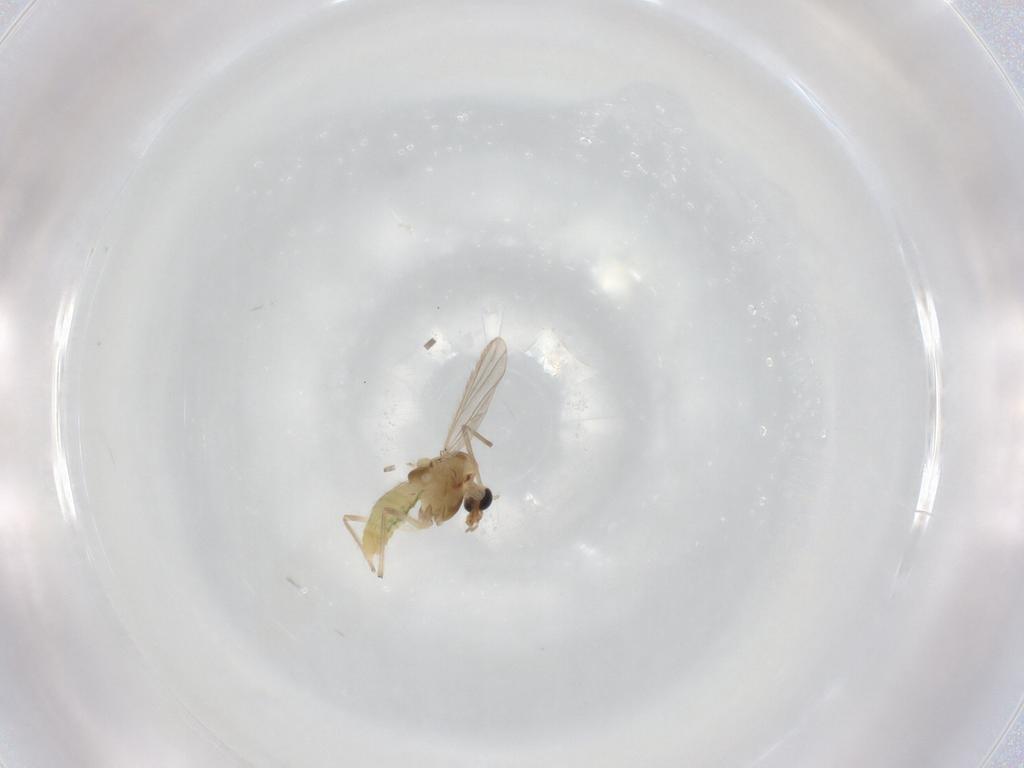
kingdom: Animalia
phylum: Arthropoda
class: Insecta
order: Diptera
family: Chironomidae
